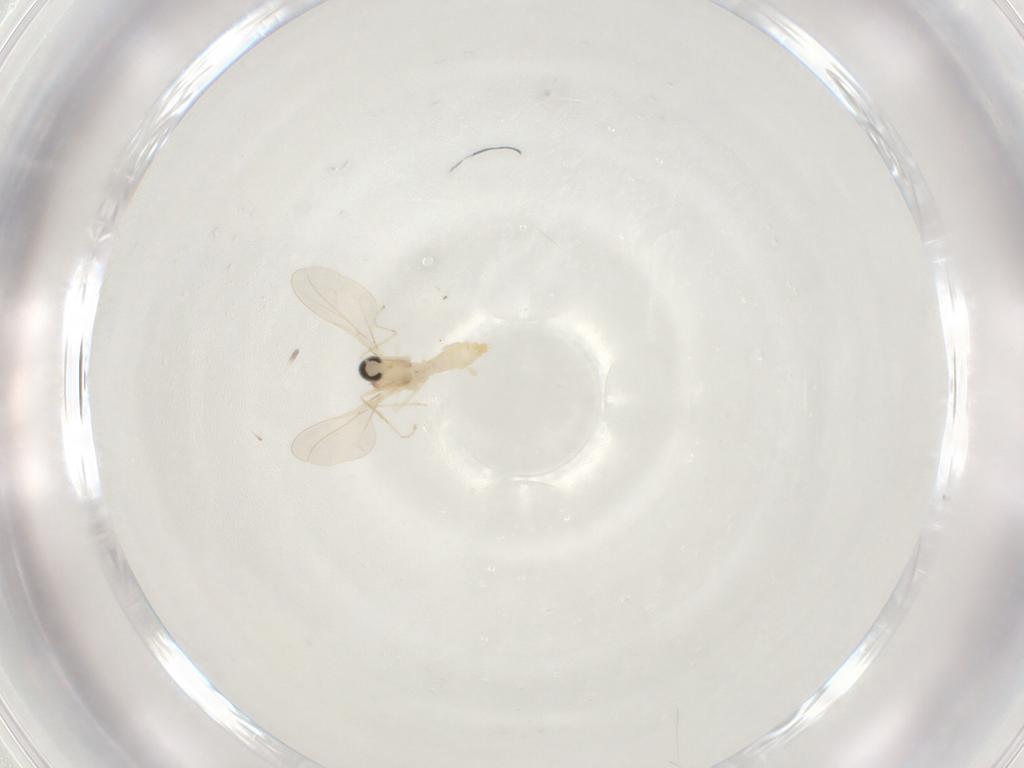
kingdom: Animalia
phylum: Arthropoda
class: Insecta
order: Diptera
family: Cecidomyiidae
